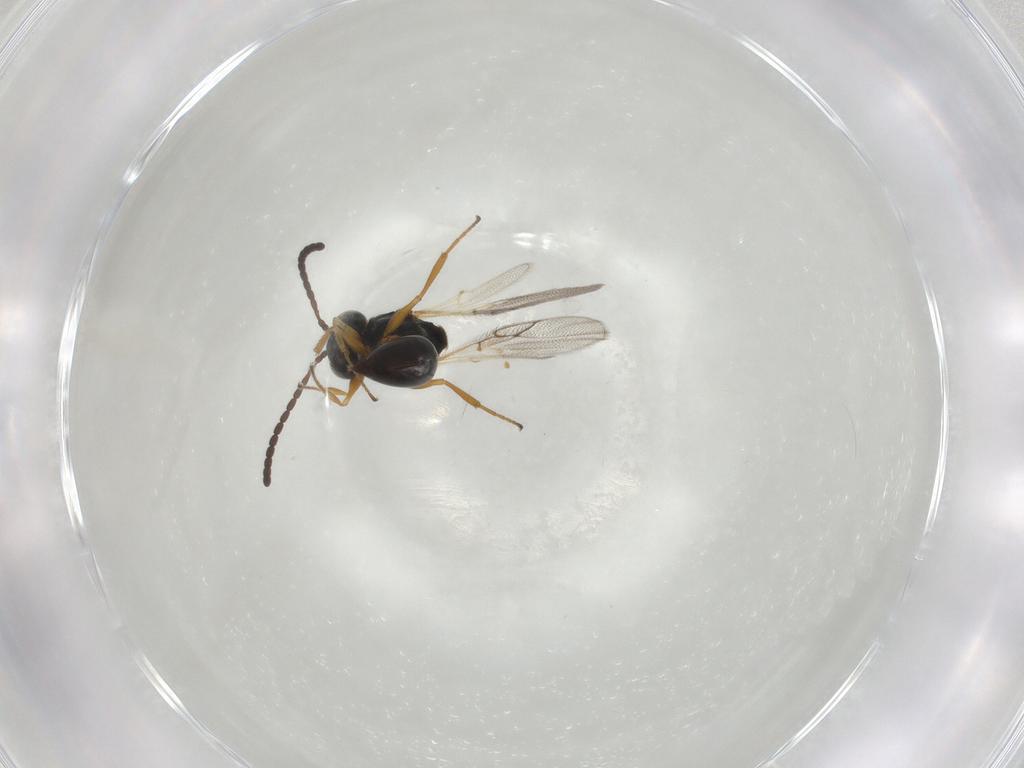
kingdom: Animalia
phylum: Arthropoda
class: Insecta
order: Hymenoptera
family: Figitidae
